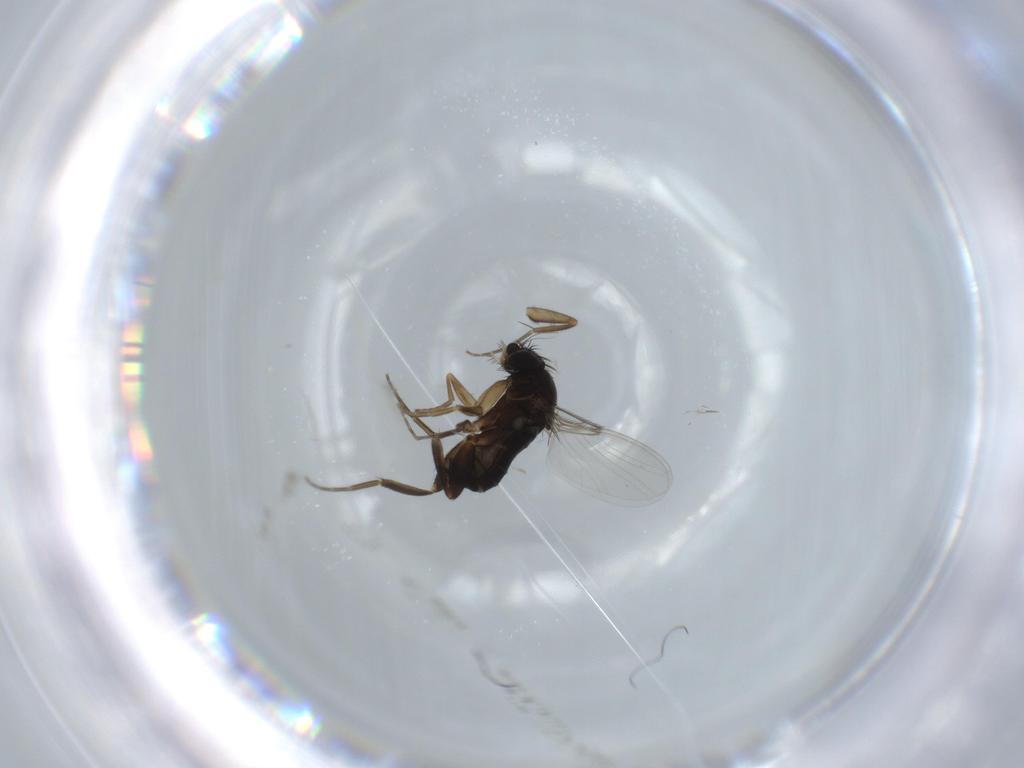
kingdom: Animalia
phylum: Arthropoda
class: Insecta
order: Diptera
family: Phoridae
